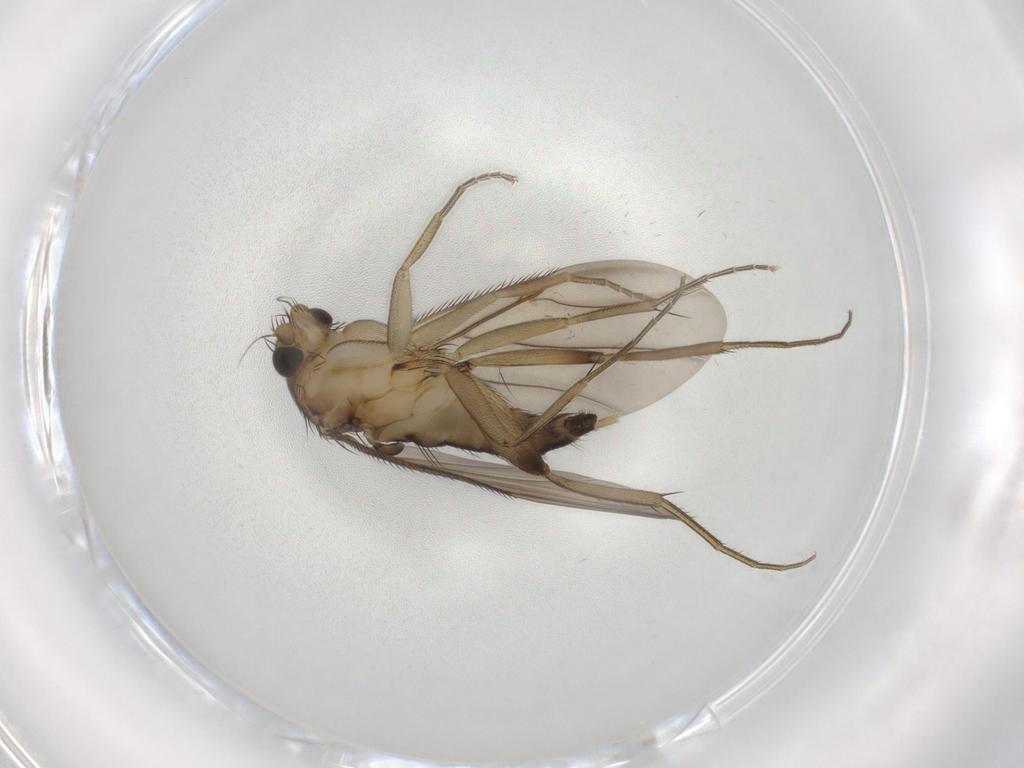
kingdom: Animalia
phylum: Arthropoda
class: Insecta
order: Diptera
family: Phoridae
